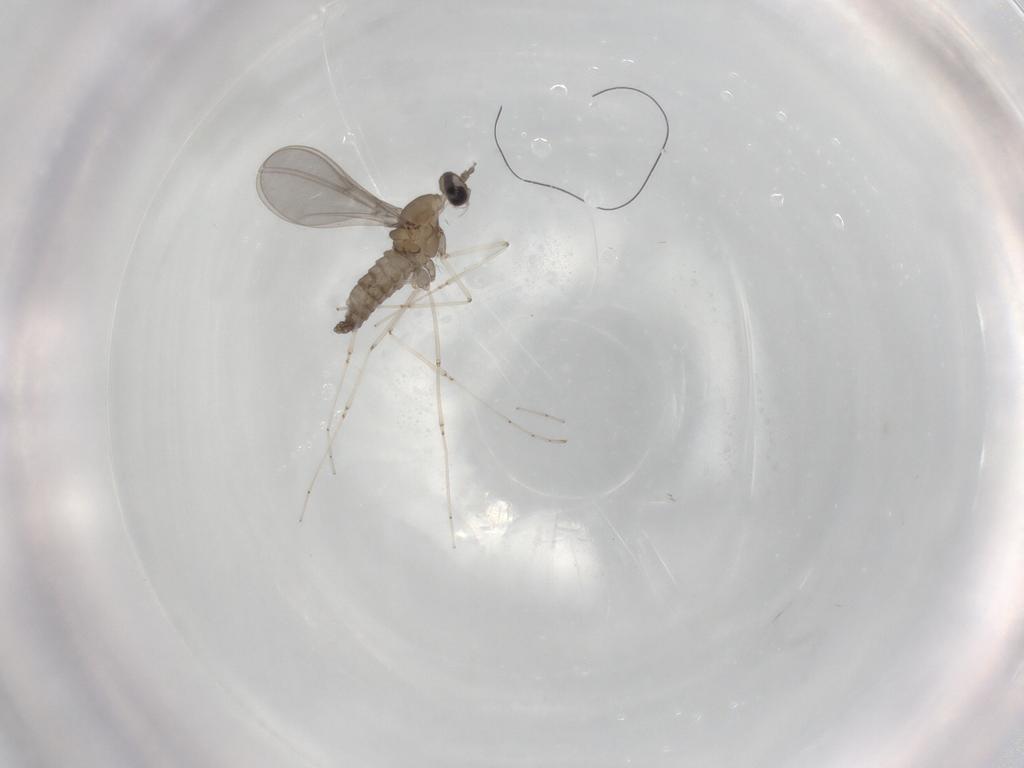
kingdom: Animalia
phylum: Arthropoda
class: Insecta
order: Diptera
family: Cecidomyiidae
